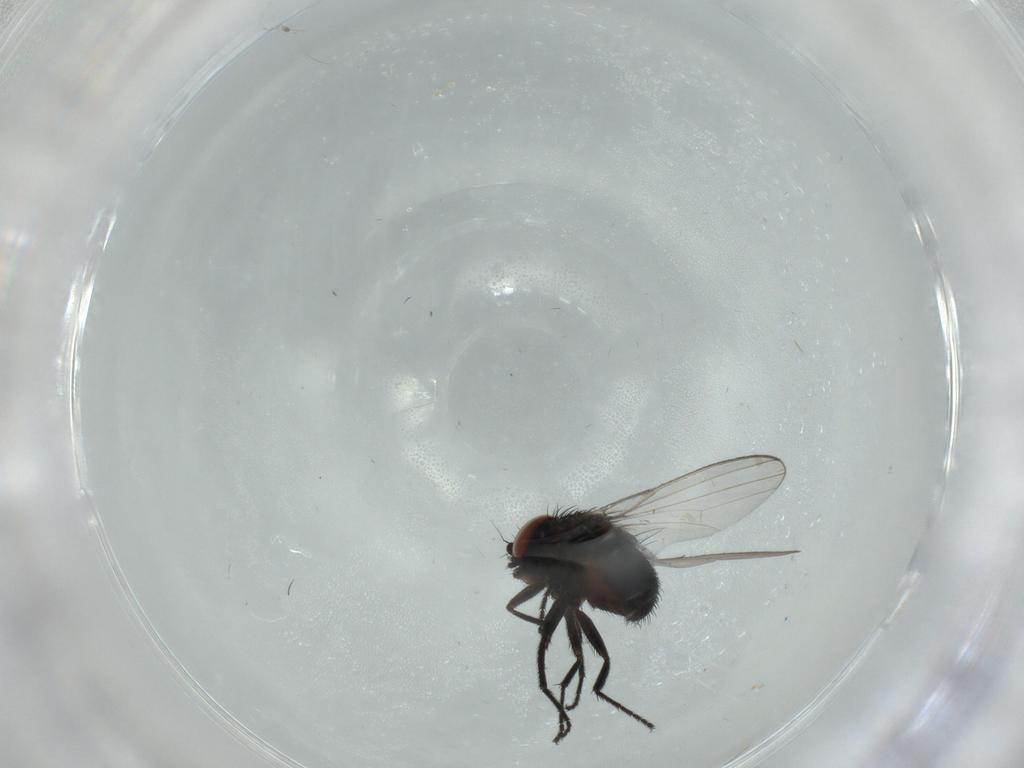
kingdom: Animalia
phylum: Arthropoda
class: Insecta
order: Diptera
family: Milichiidae
